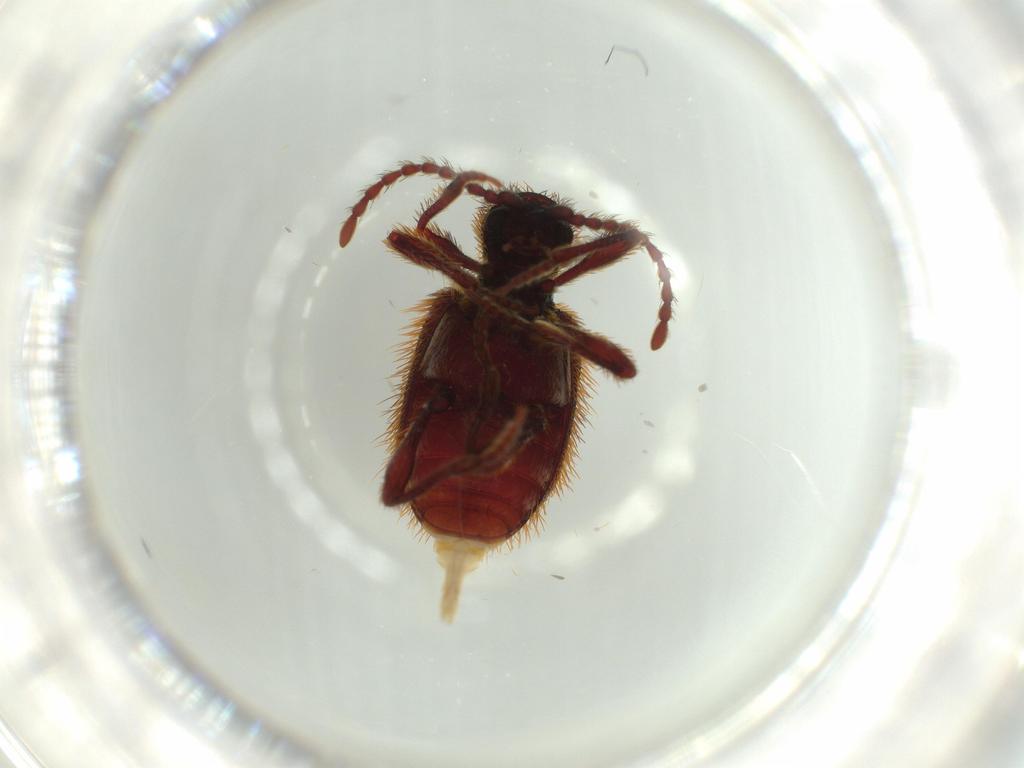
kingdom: Animalia
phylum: Arthropoda
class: Insecta
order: Coleoptera
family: Ptinidae
